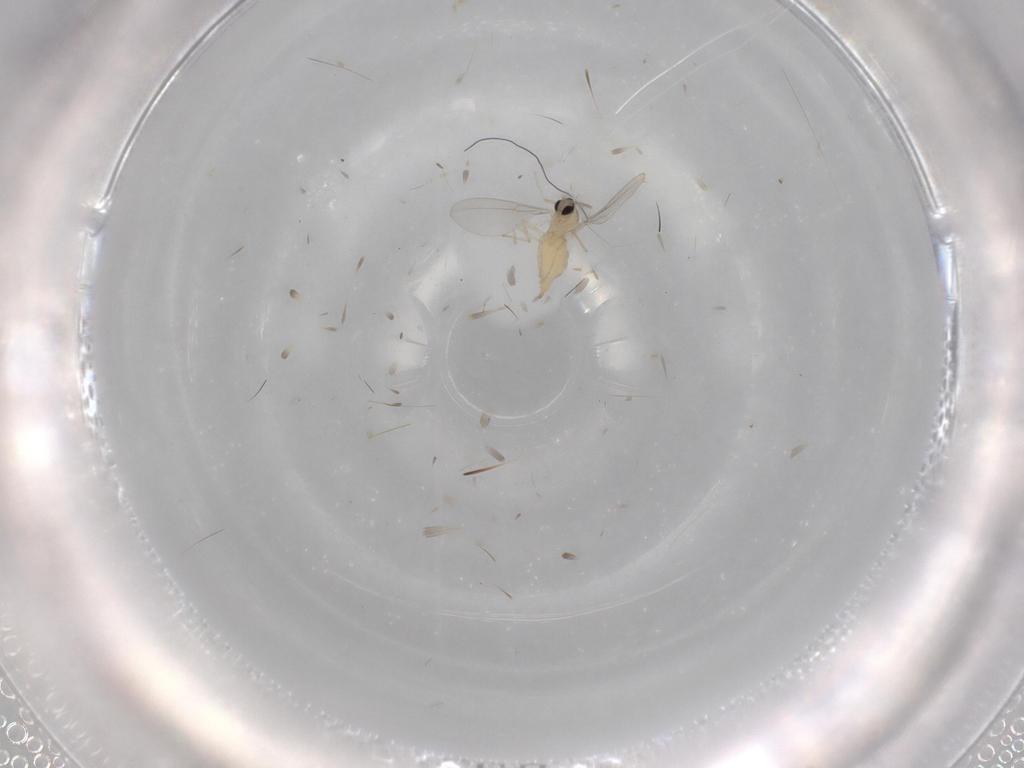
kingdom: Animalia
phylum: Arthropoda
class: Insecta
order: Diptera
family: Cecidomyiidae
